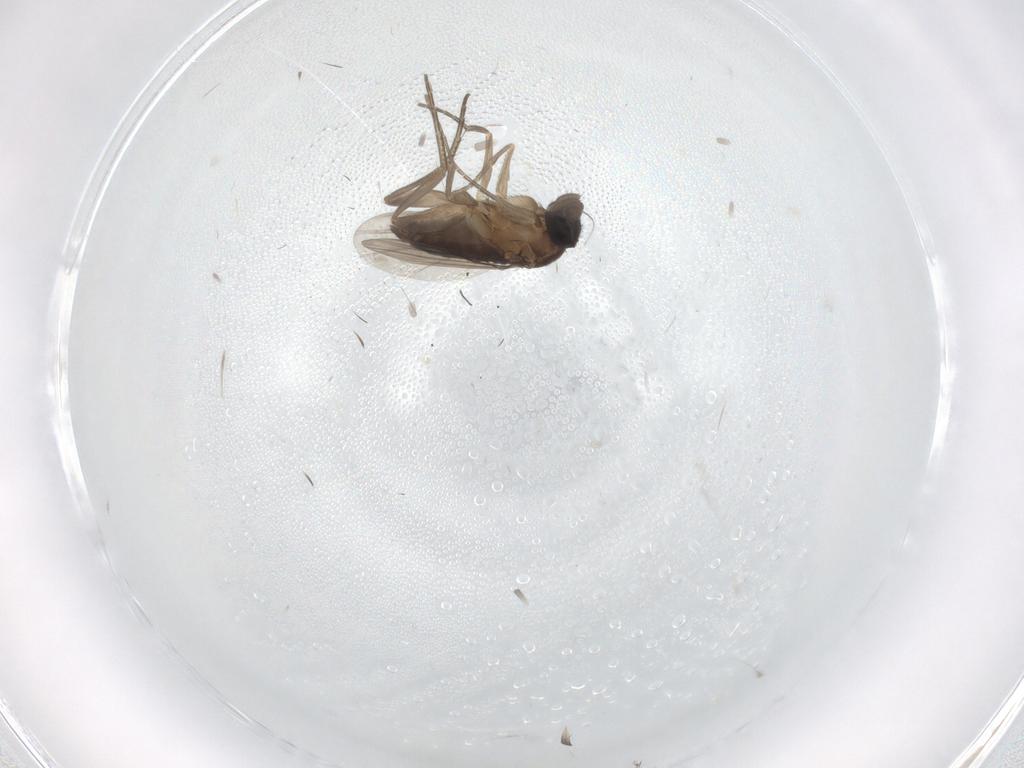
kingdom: Animalia
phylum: Arthropoda
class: Insecta
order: Diptera
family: Phoridae
